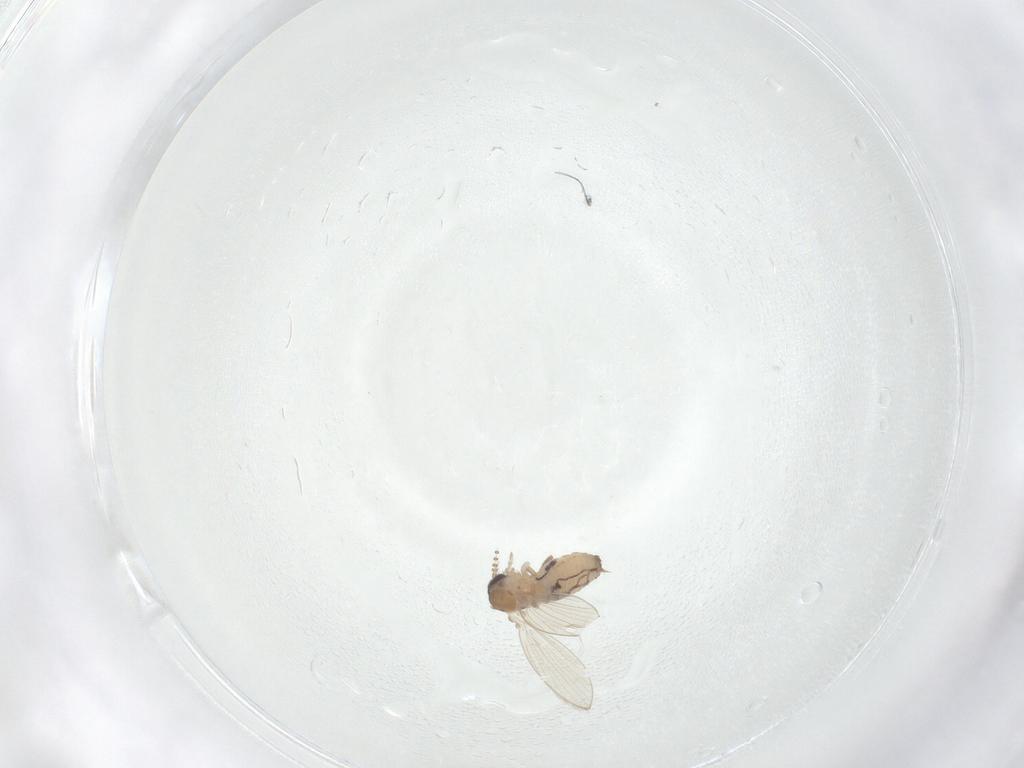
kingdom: Animalia
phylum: Arthropoda
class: Insecta
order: Diptera
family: Psychodidae
